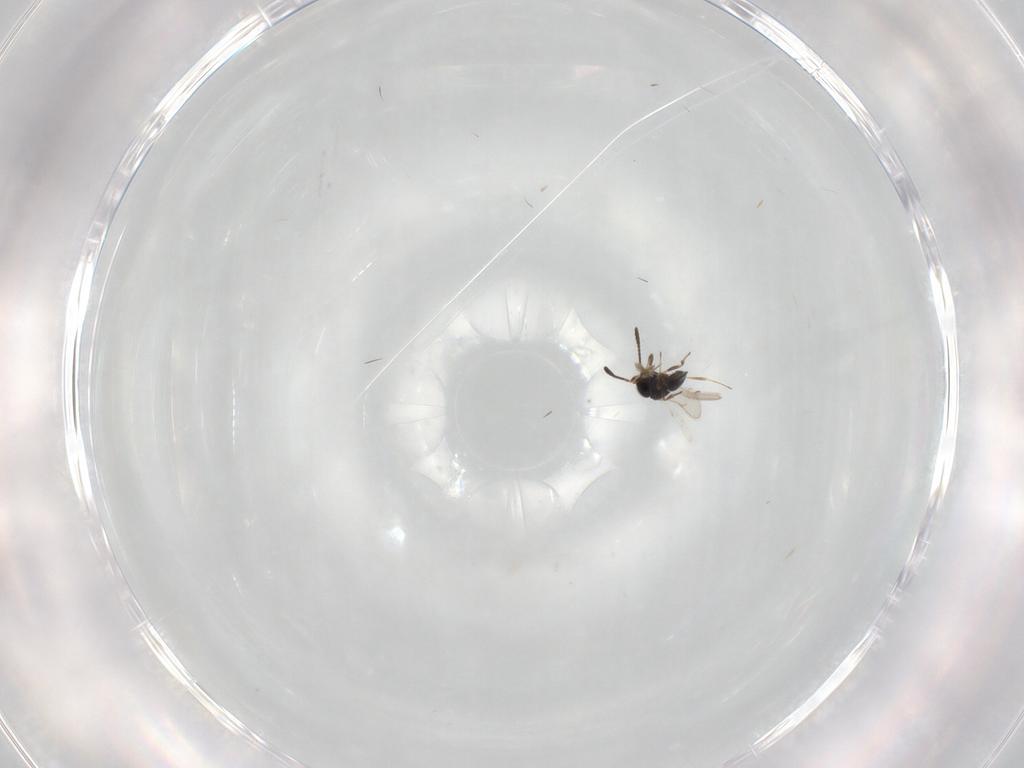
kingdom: Animalia
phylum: Arthropoda
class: Insecta
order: Hymenoptera
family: Scelionidae
